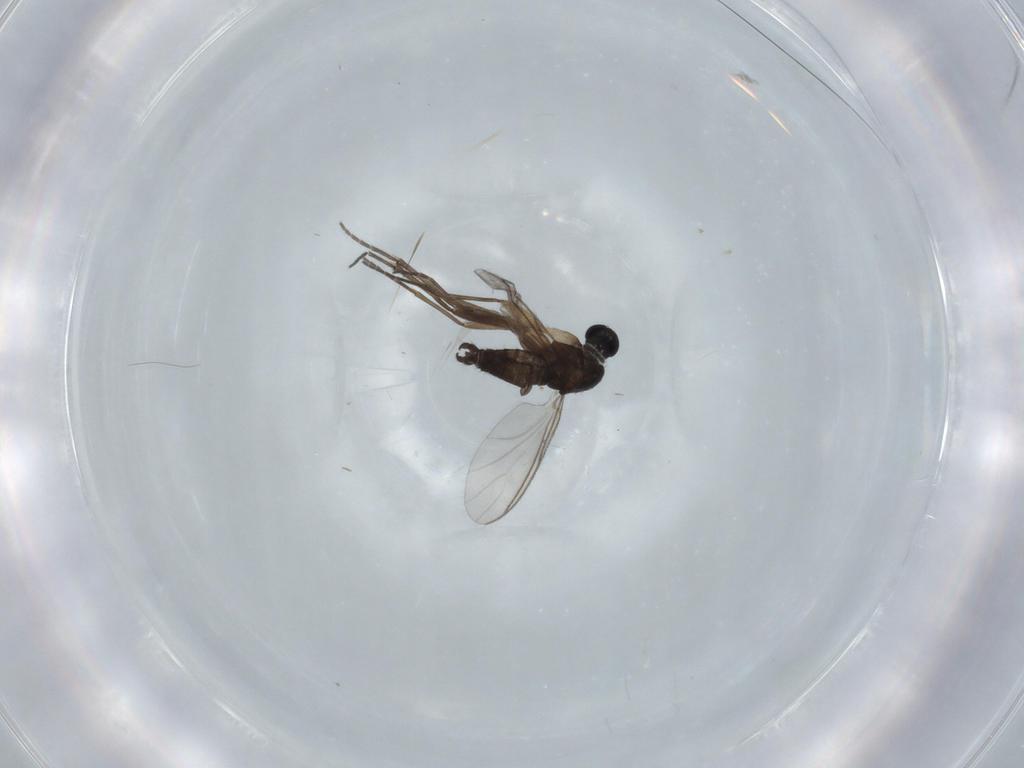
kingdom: Animalia
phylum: Arthropoda
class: Insecta
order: Diptera
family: Sciaridae
